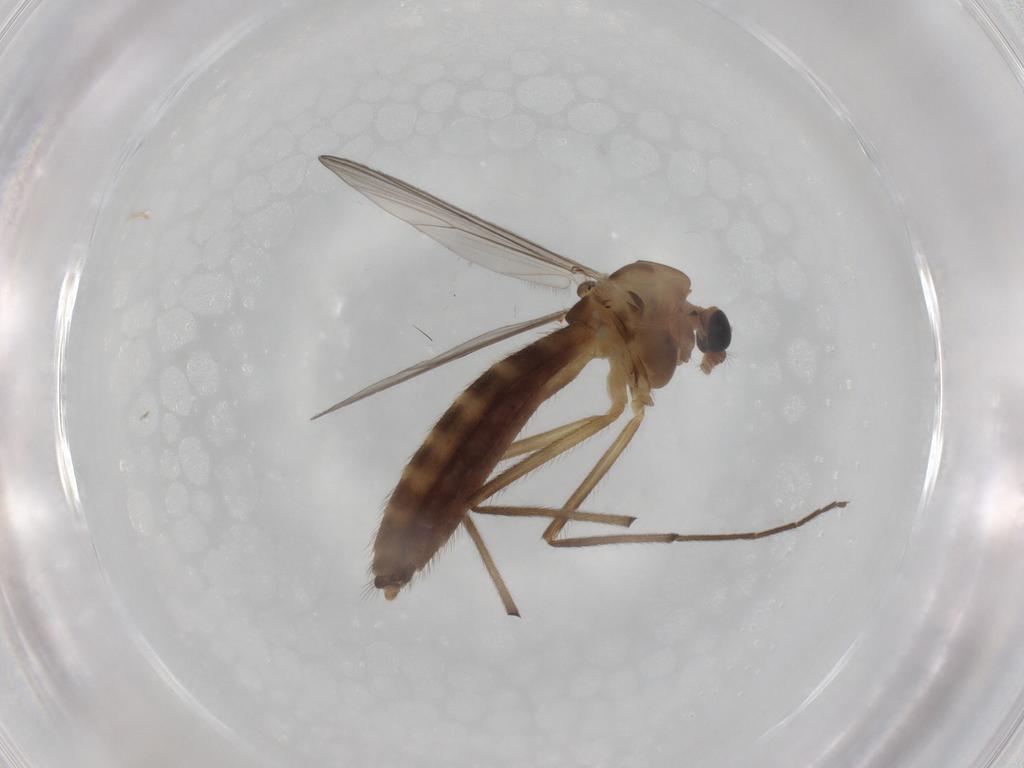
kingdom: Animalia
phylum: Arthropoda
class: Insecta
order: Diptera
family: Chironomidae
